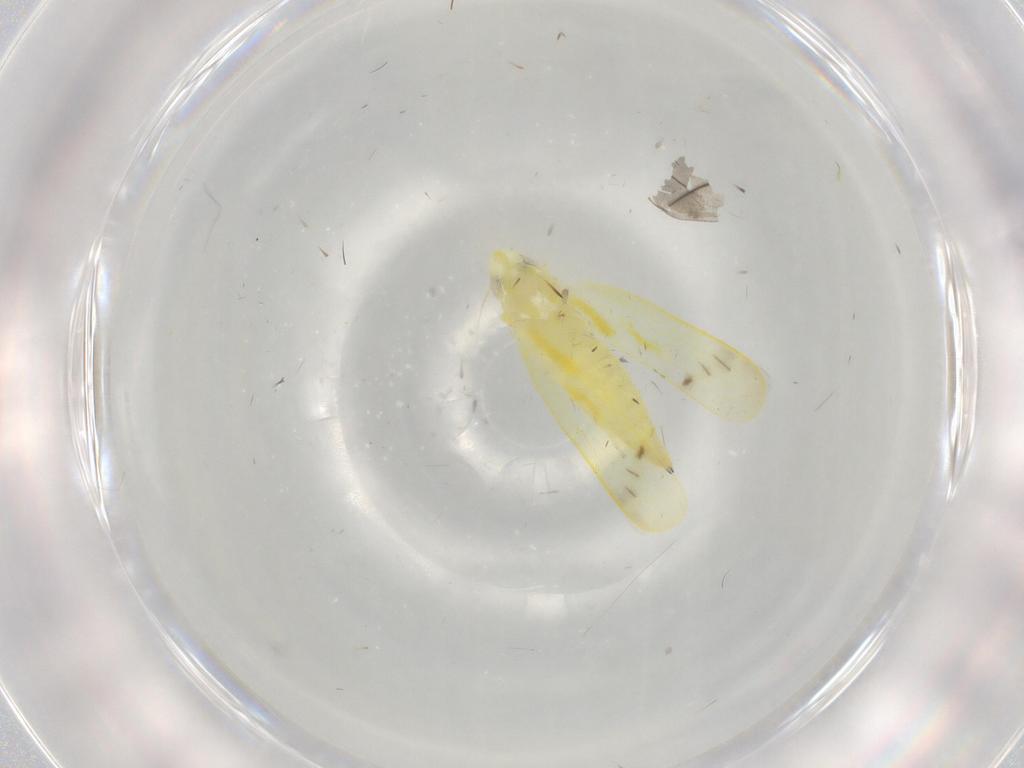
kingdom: Animalia
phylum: Arthropoda
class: Insecta
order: Hemiptera
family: Cicadellidae
